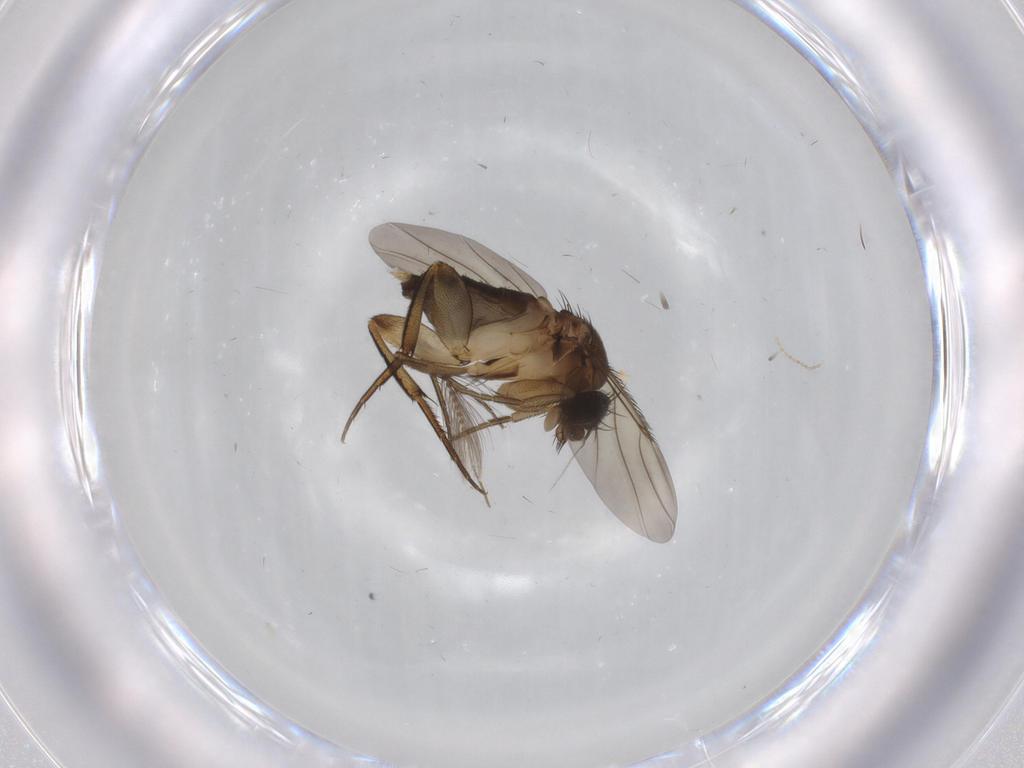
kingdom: Animalia
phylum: Arthropoda
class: Insecta
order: Diptera
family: Phoridae
